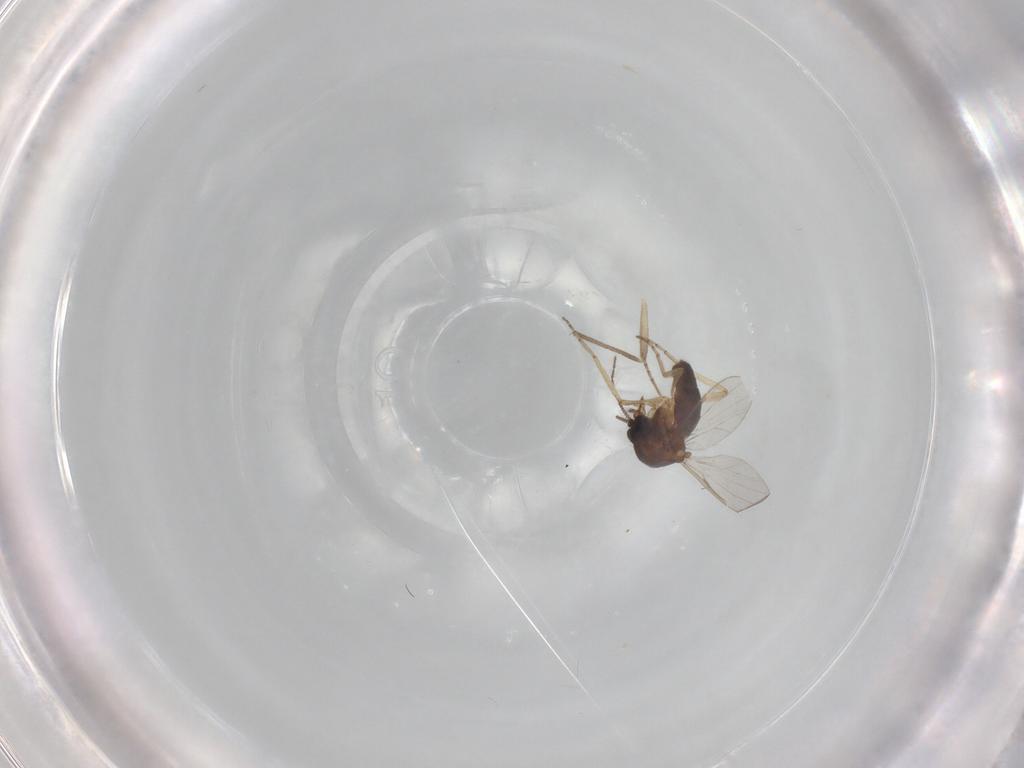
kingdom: Animalia
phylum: Arthropoda
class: Insecta
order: Diptera
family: Ceratopogonidae
